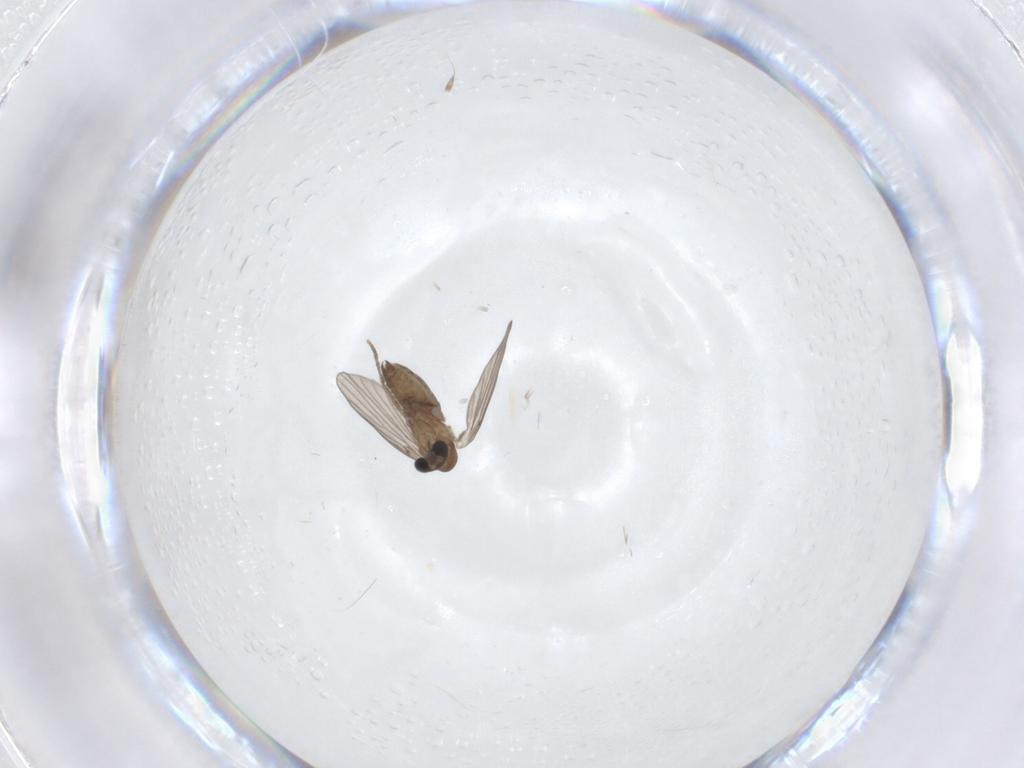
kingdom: Animalia
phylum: Arthropoda
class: Insecta
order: Diptera
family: Psychodidae
